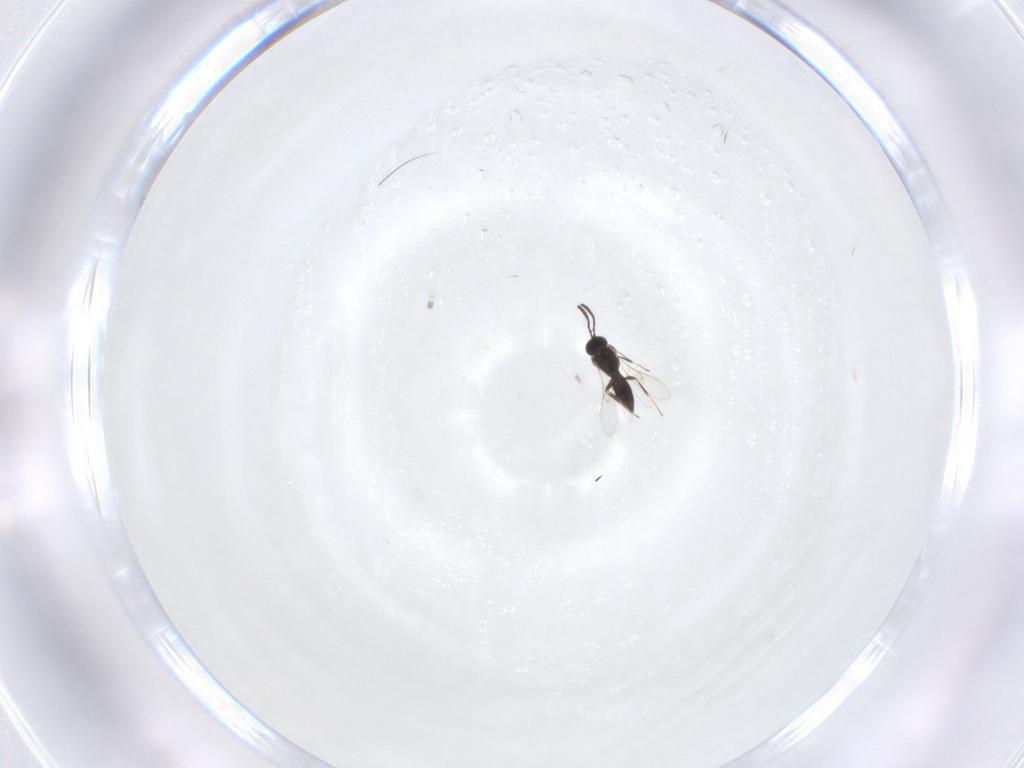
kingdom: Animalia
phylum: Arthropoda
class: Insecta
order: Hymenoptera
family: Scelionidae
